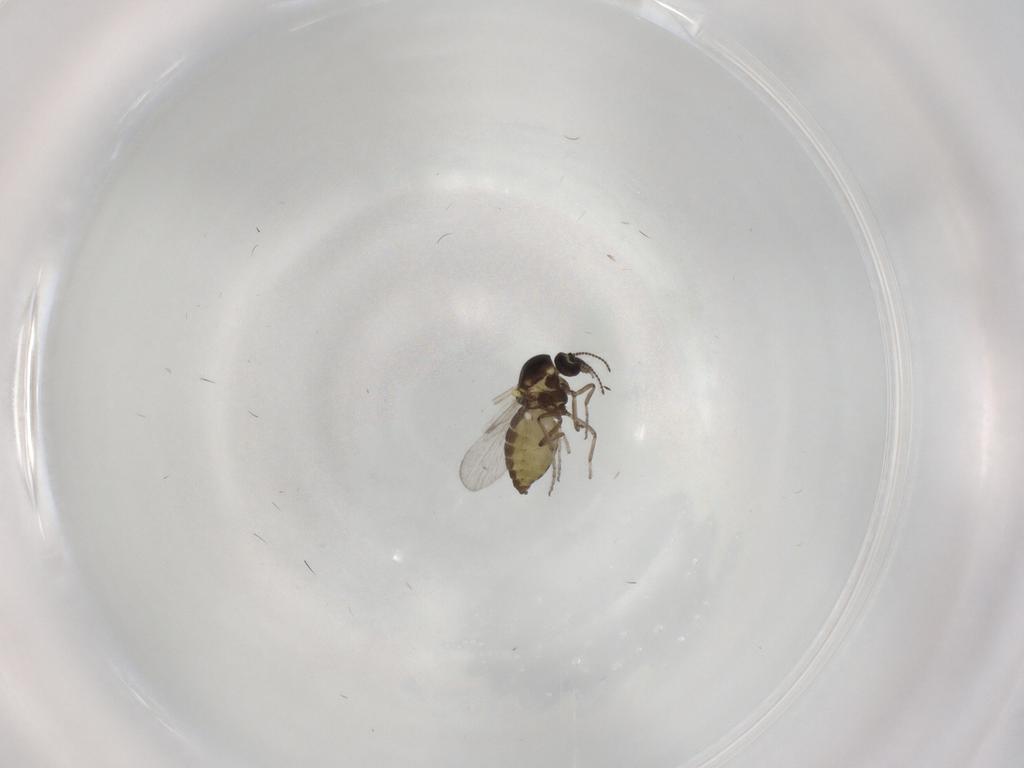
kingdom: Animalia
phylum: Arthropoda
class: Insecta
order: Diptera
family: Ceratopogonidae
